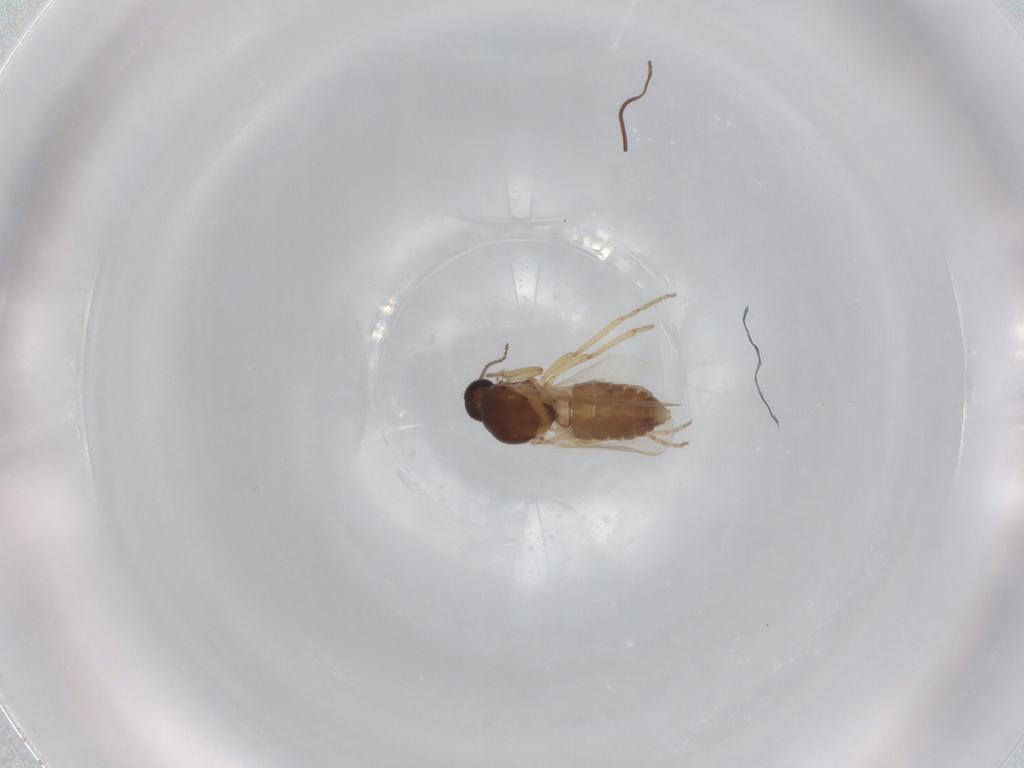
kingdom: Animalia
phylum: Arthropoda
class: Insecta
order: Diptera
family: Ceratopogonidae
